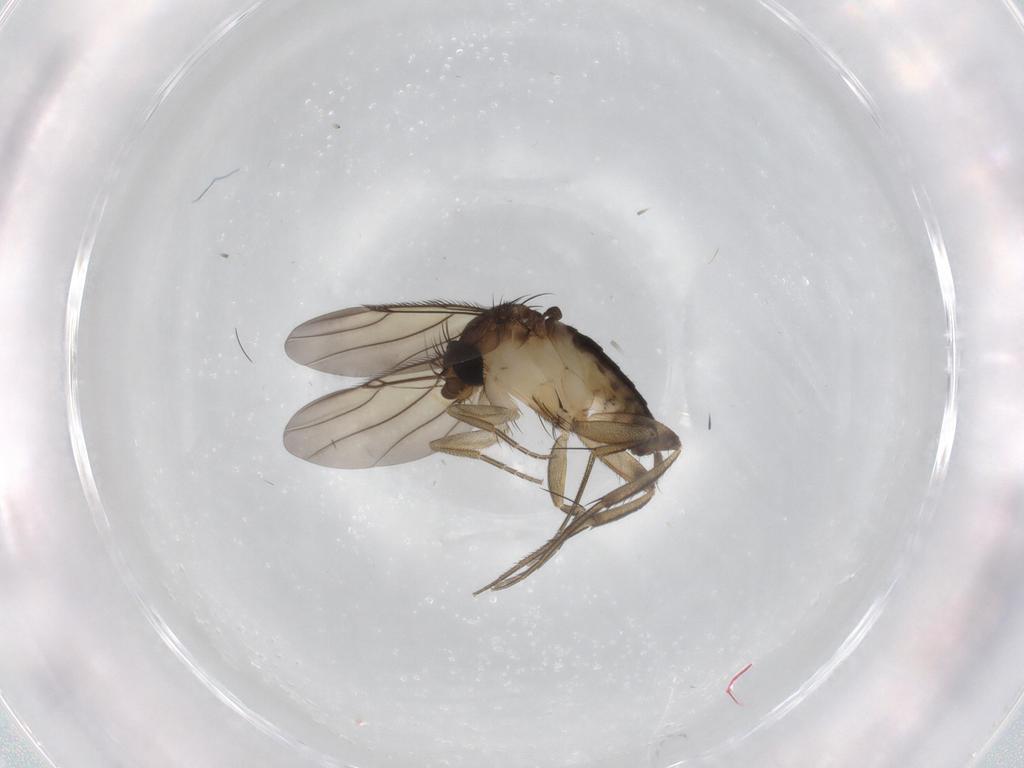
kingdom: Animalia
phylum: Arthropoda
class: Insecta
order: Diptera
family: Phoridae
